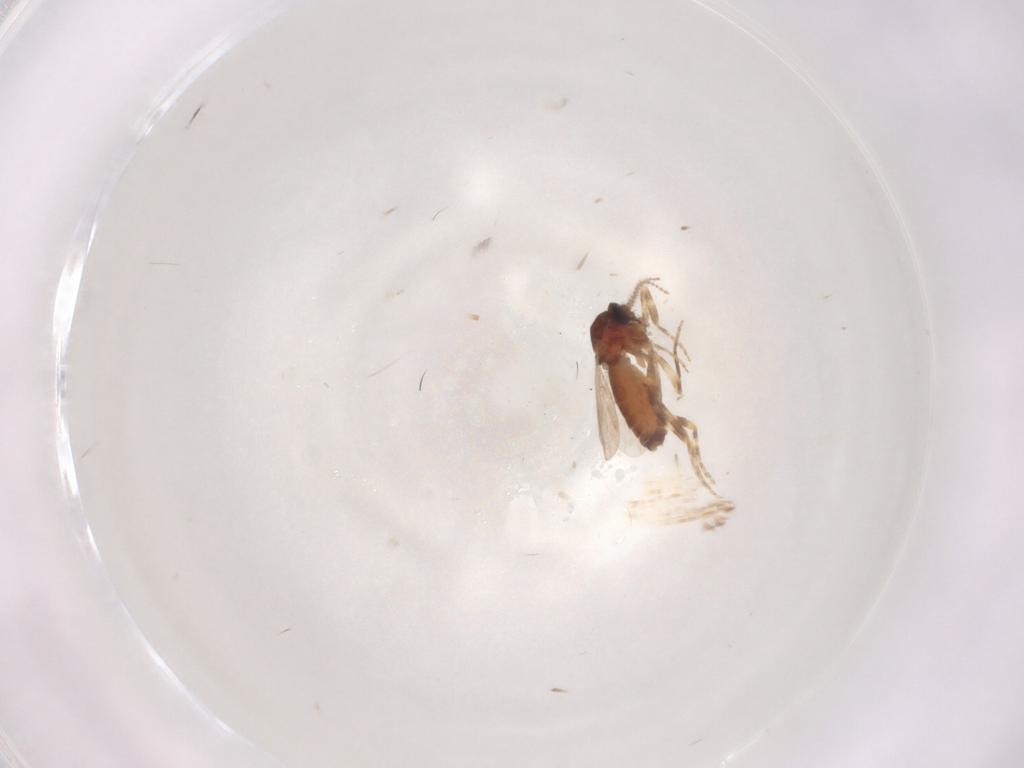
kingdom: Animalia
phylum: Arthropoda
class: Insecta
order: Diptera
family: Ceratopogonidae
